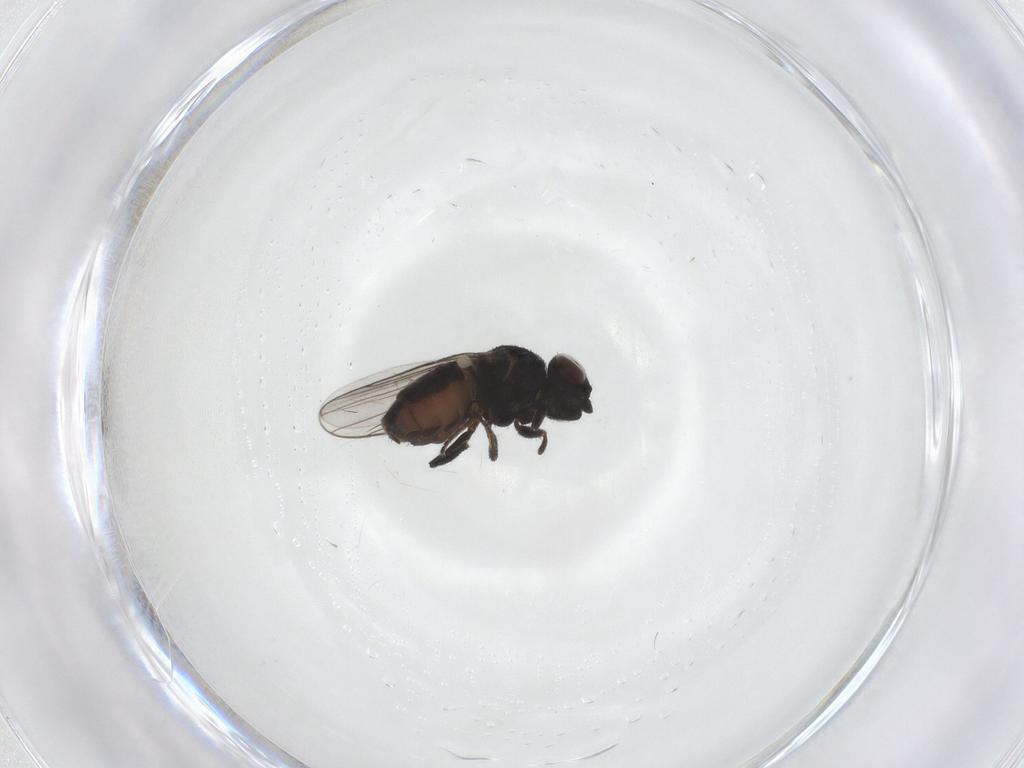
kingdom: Animalia
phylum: Arthropoda
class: Insecta
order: Diptera
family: Chloropidae
